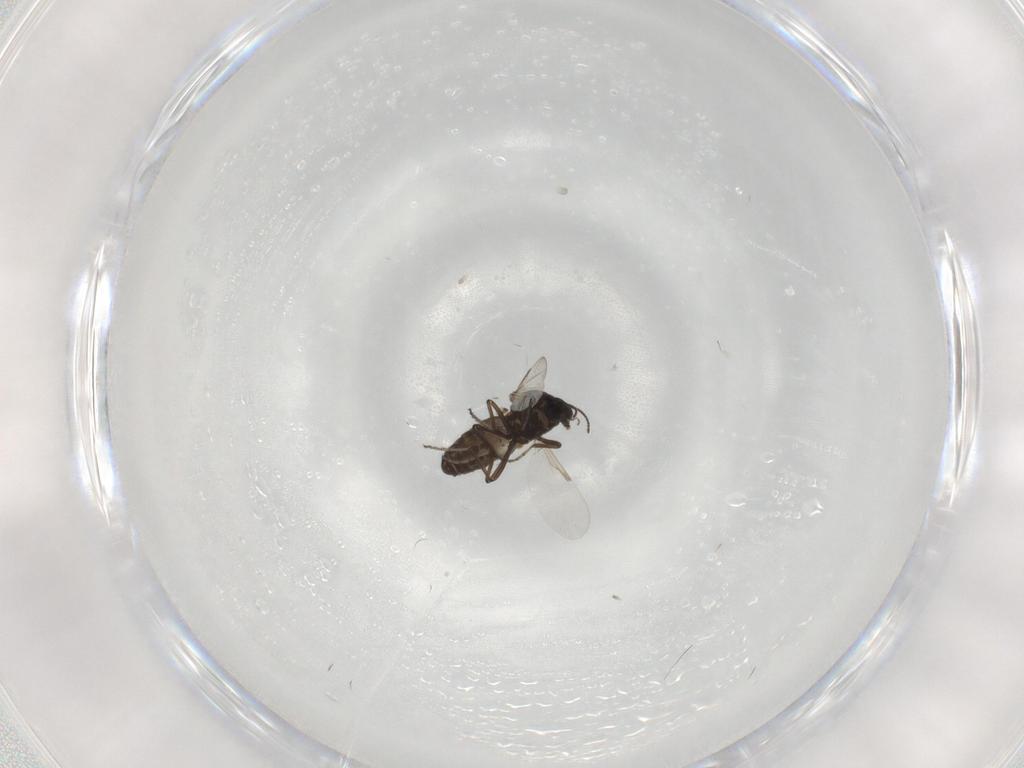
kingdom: Animalia
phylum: Arthropoda
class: Insecta
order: Diptera
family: Ceratopogonidae
